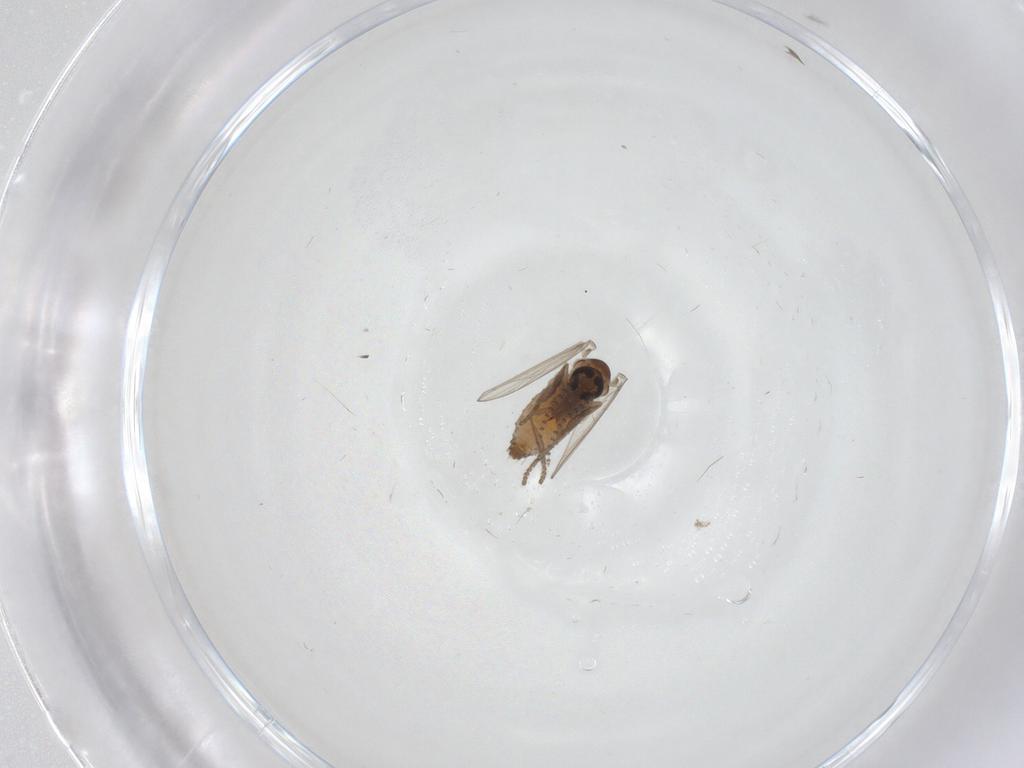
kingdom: Animalia
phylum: Arthropoda
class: Insecta
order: Diptera
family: Psychodidae
